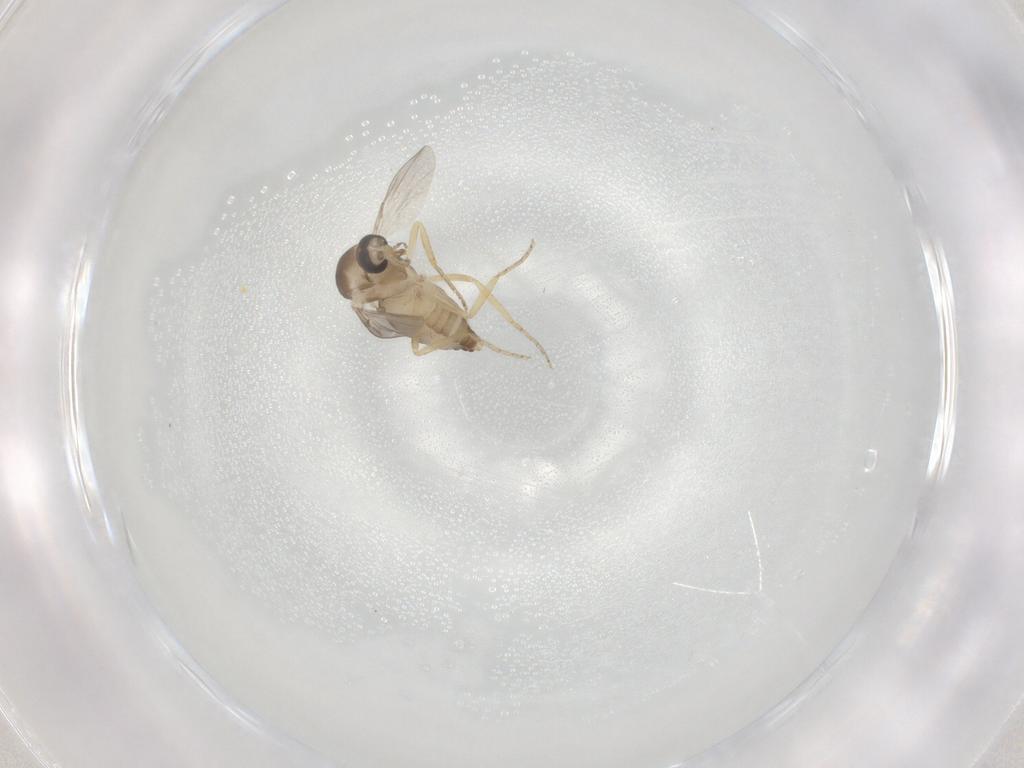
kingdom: Animalia
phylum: Arthropoda
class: Insecta
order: Diptera
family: Ceratopogonidae
